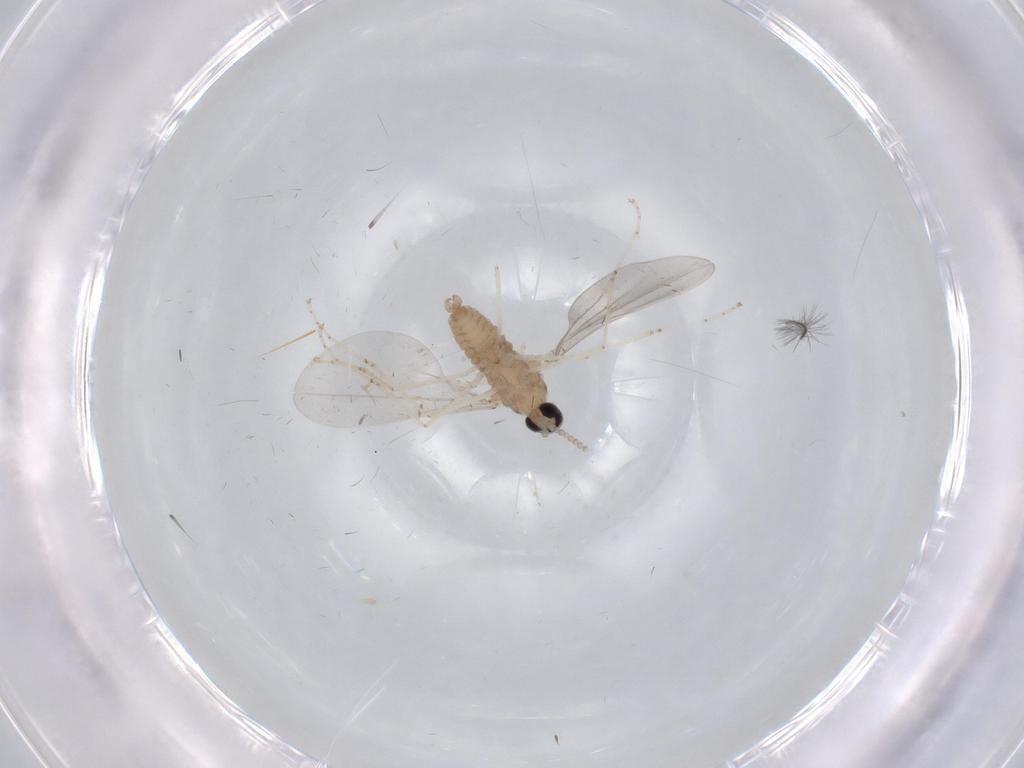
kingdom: Animalia
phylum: Arthropoda
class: Insecta
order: Diptera
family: Cecidomyiidae
